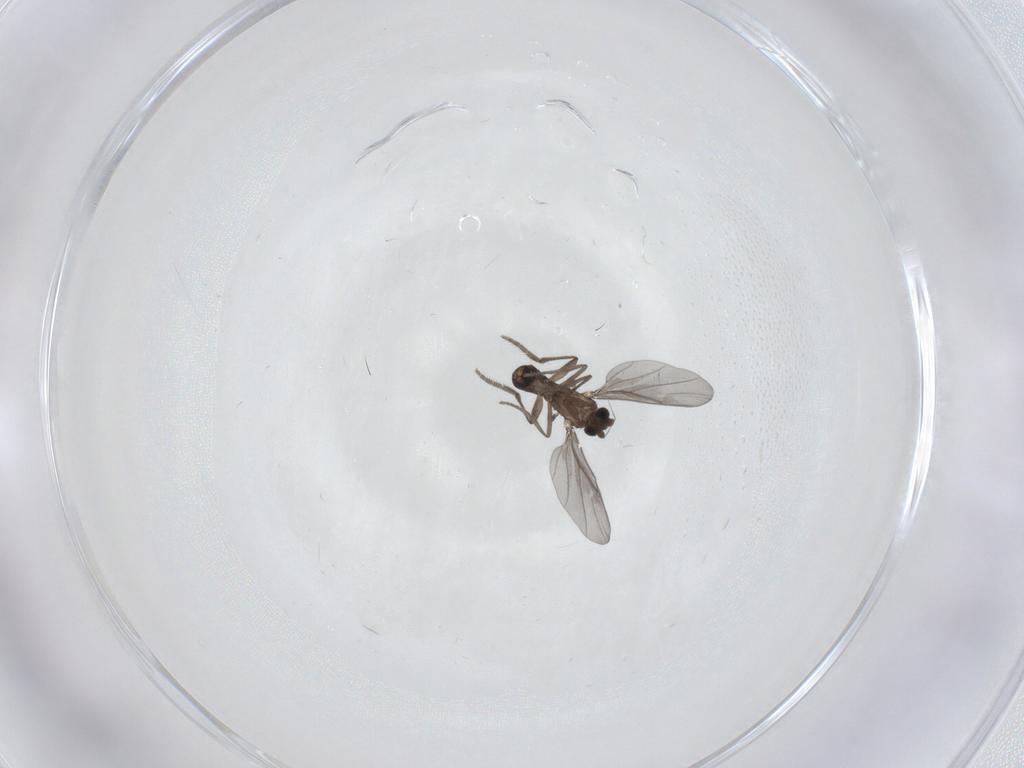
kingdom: Animalia
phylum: Arthropoda
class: Insecta
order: Diptera
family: Phoridae
